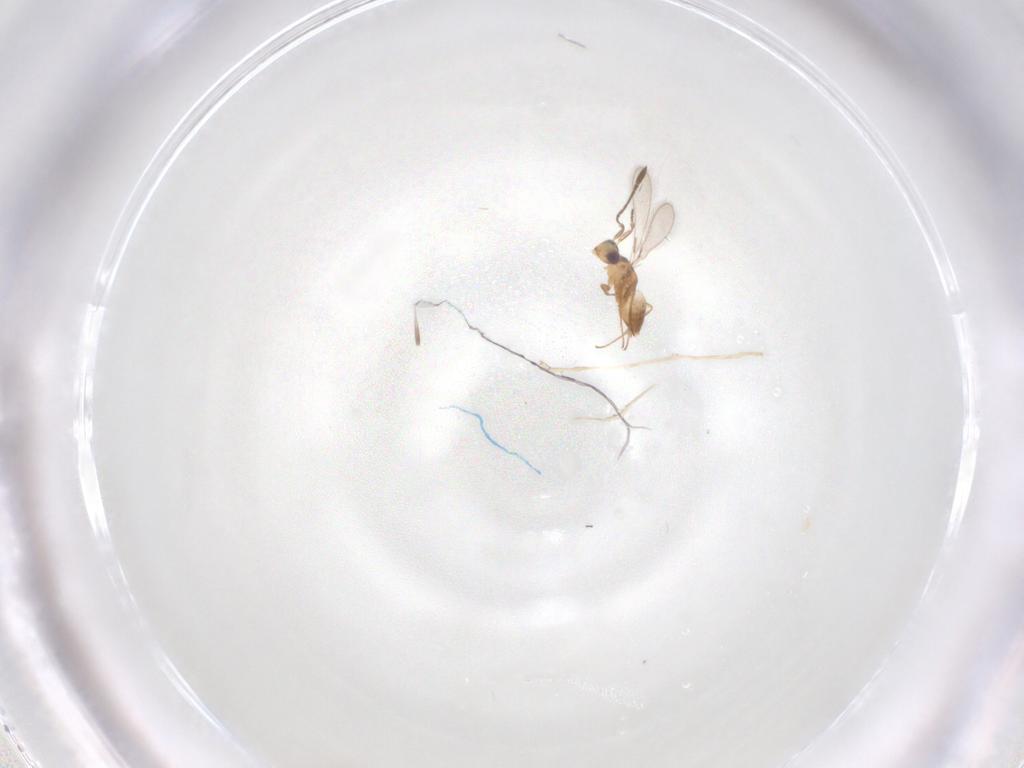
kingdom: Animalia
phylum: Arthropoda
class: Insecta
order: Hymenoptera
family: Mymaridae
